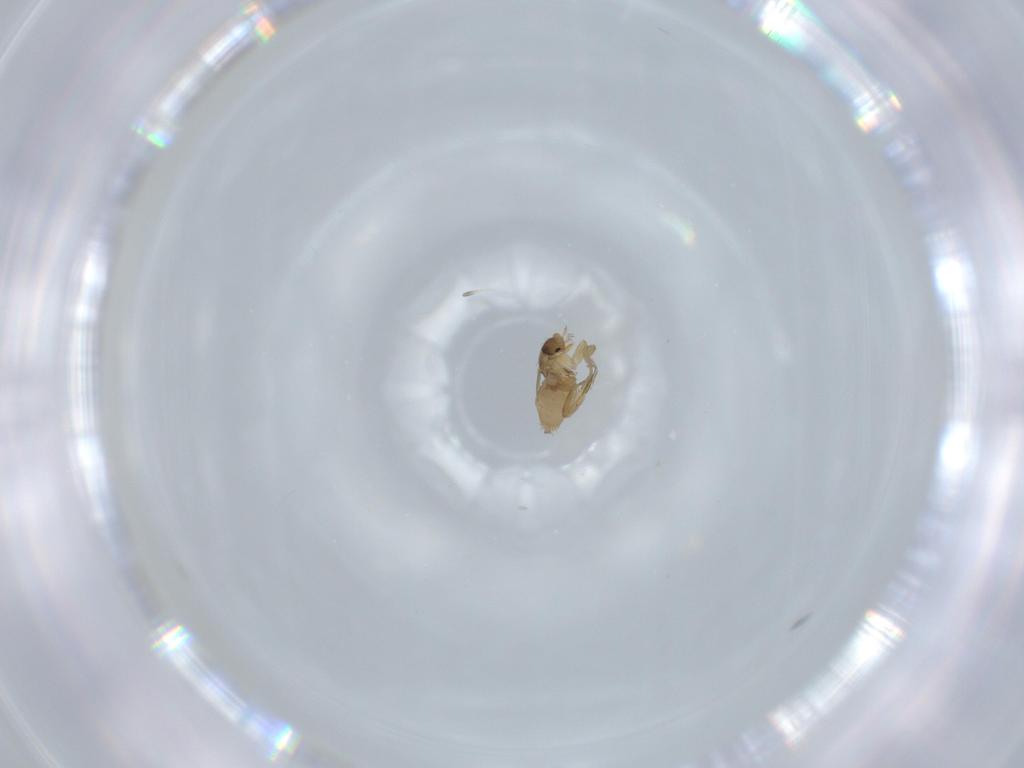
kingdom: Animalia
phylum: Arthropoda
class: Insecta
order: Diptera
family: Phoridae
